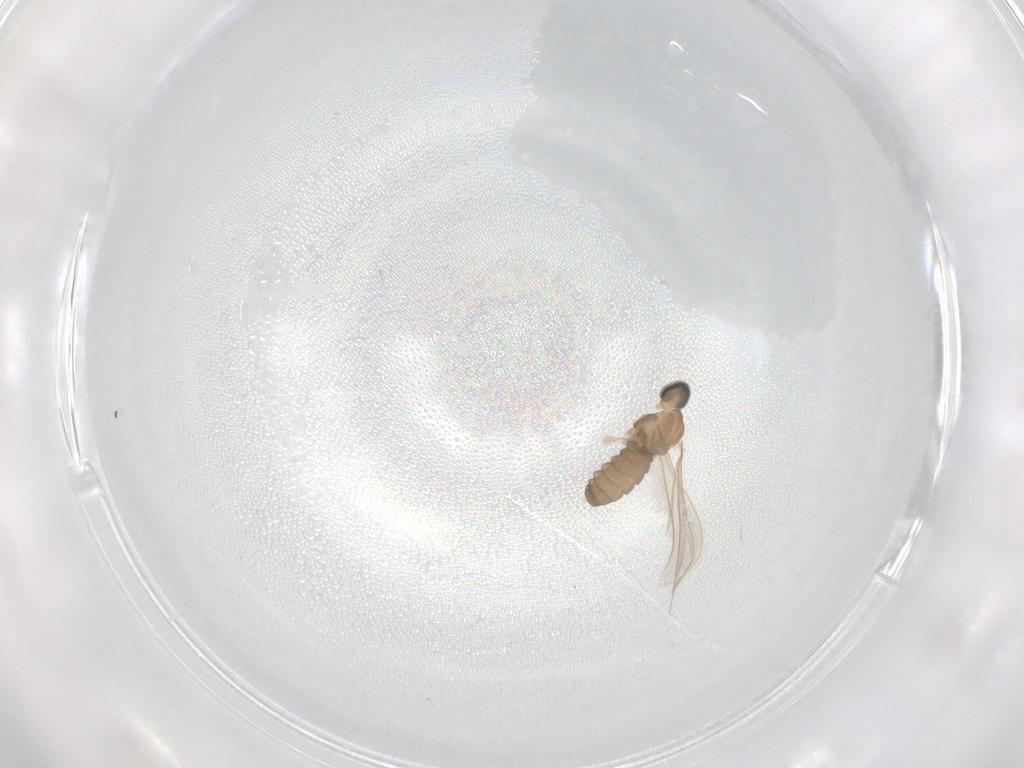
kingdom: Animalia
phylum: Arthropoda
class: Insecta
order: Diptera
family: Cecidomyiidae
